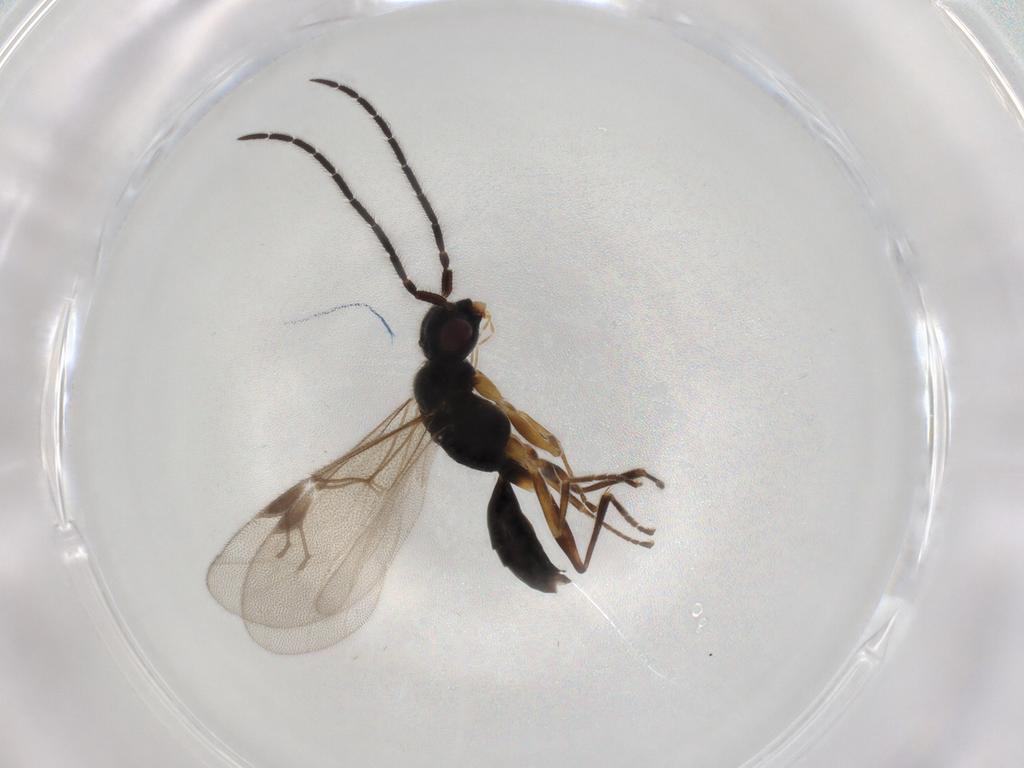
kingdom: Animalia
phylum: Arthropoda
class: Insecta
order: Hymenoptera
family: Dryinidae
